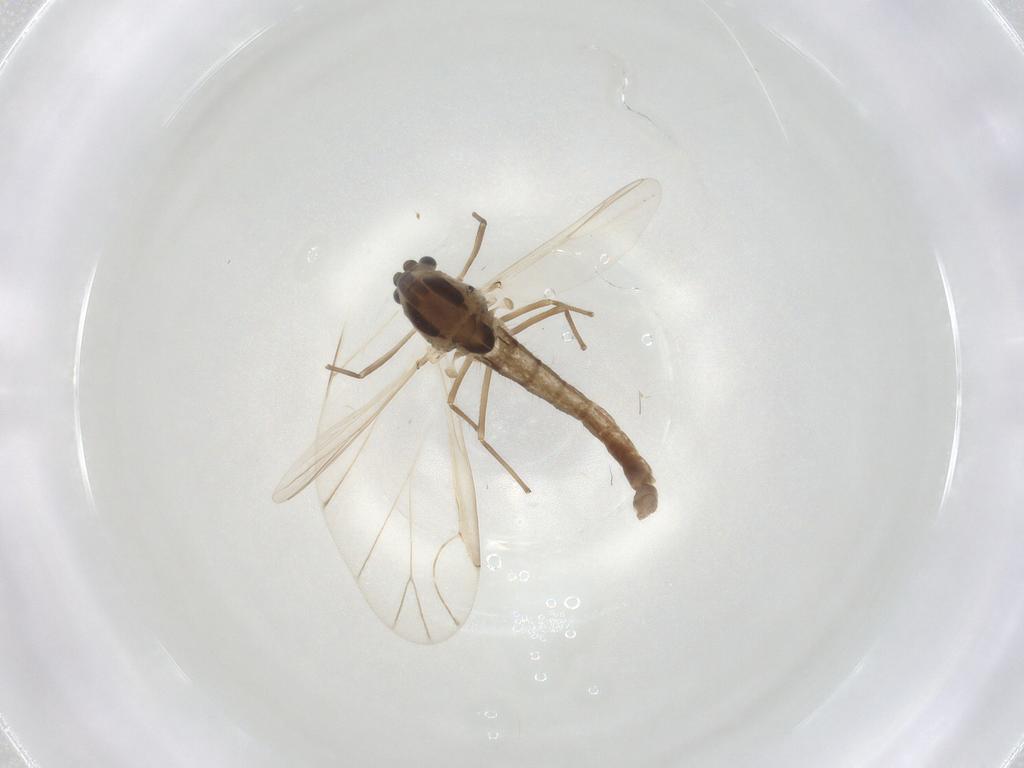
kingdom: Animalia
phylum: Arthropoda
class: Insecta
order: Diptera
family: Chironomidae
